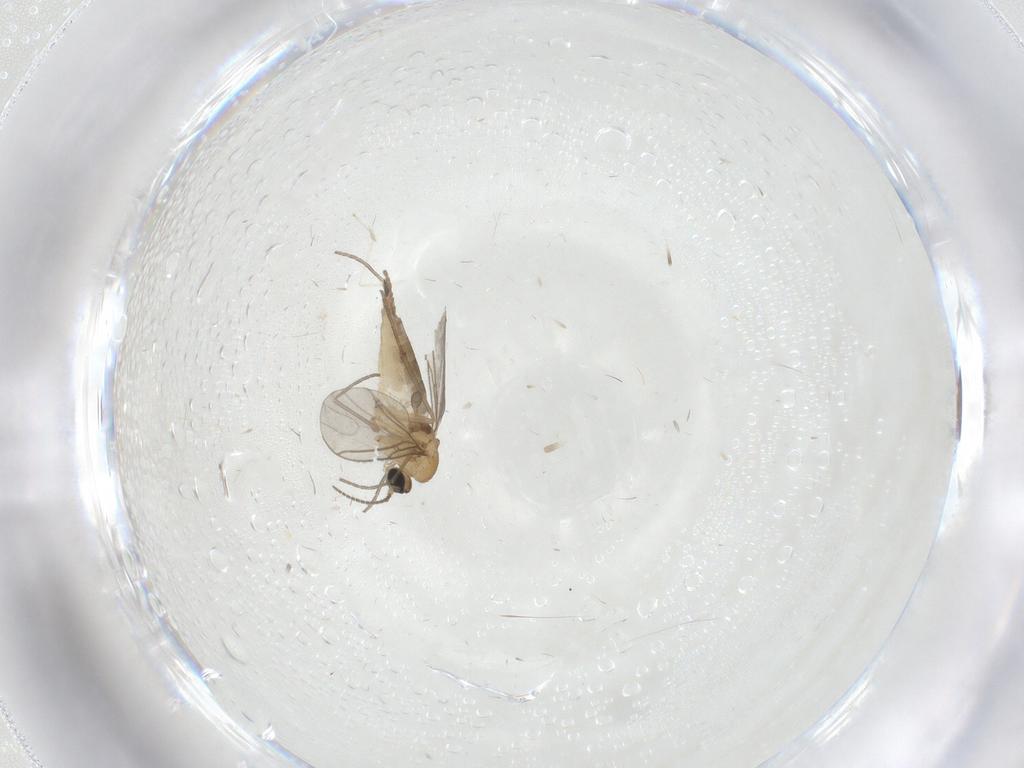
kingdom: Animalia
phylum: Arthropoda
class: Insecta
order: Diptera
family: Sciaridae
